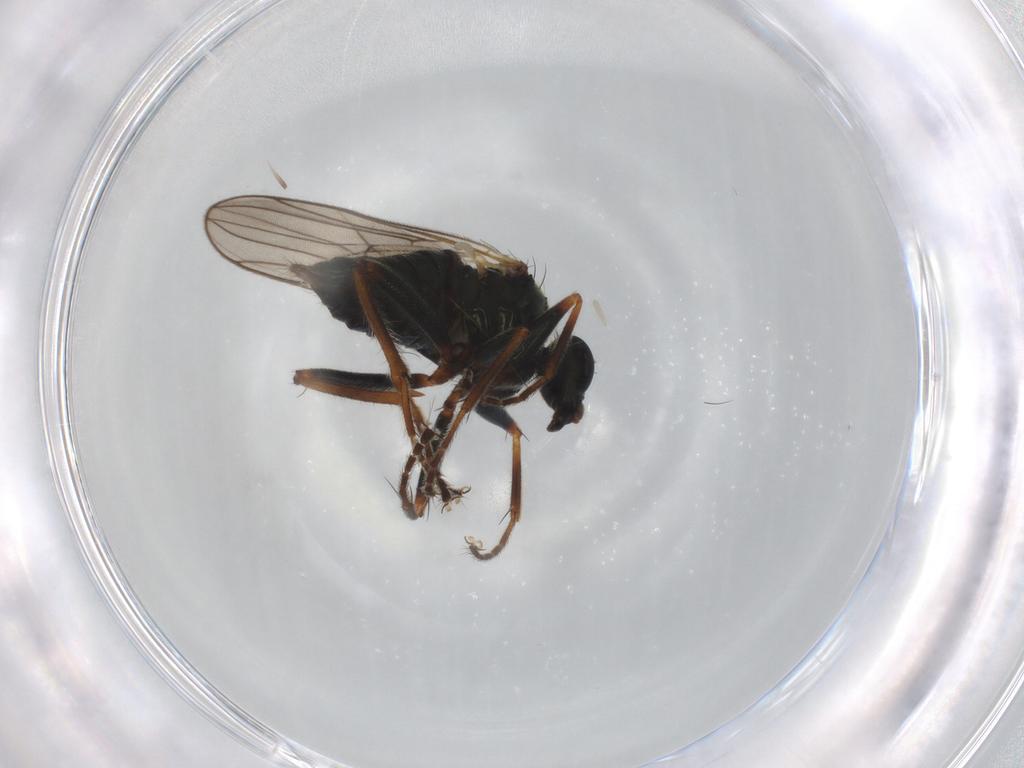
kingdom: Animalia
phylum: Arthropoda
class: Insecta
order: Diptera
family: Hybotidae
